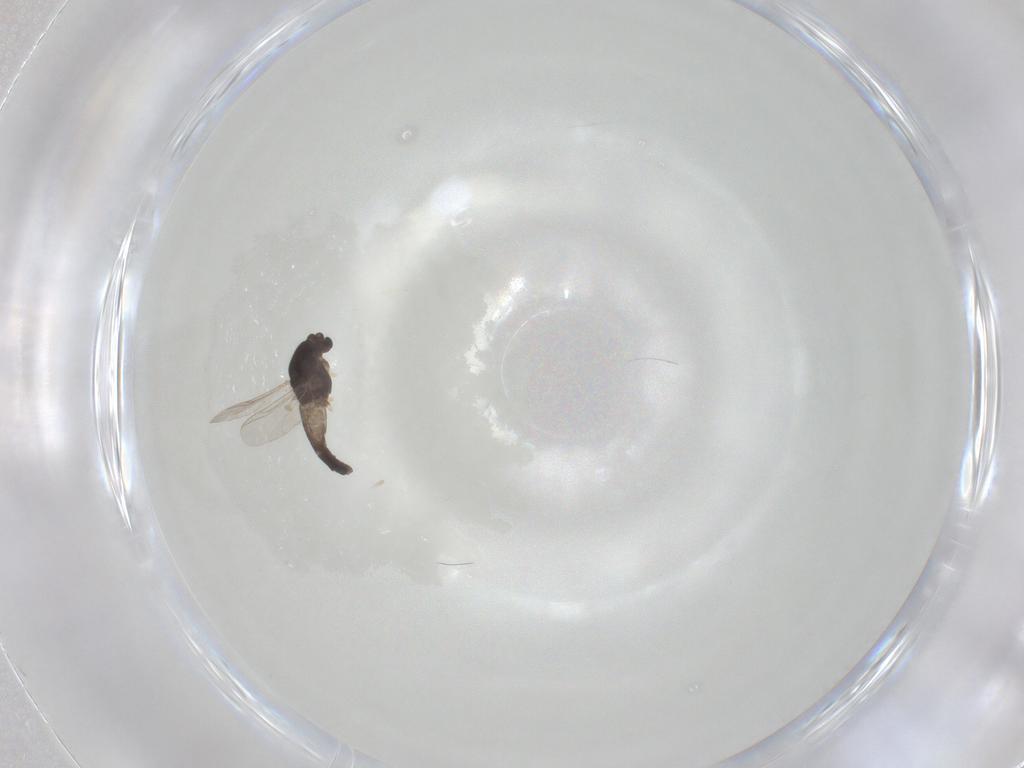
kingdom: Animalia
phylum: Arthropoda
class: Insecta
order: Diptera
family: Chironomidae
